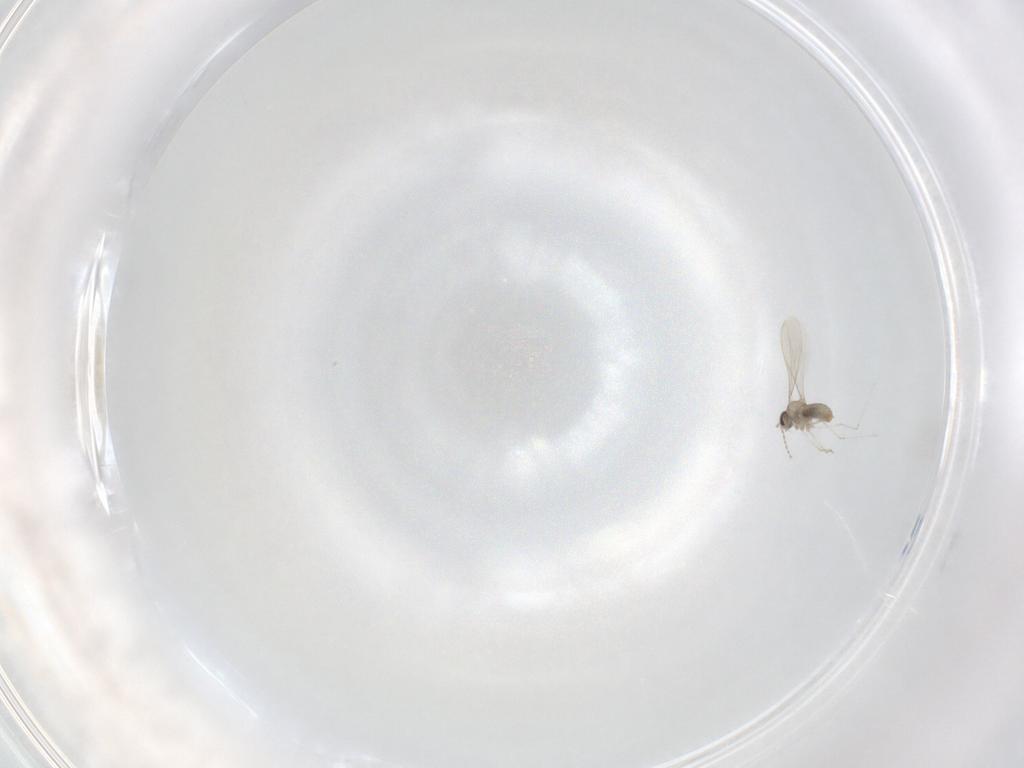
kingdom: Animalia
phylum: Arthropoda
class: Insecta
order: Diptera
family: Cecidomyiidae
